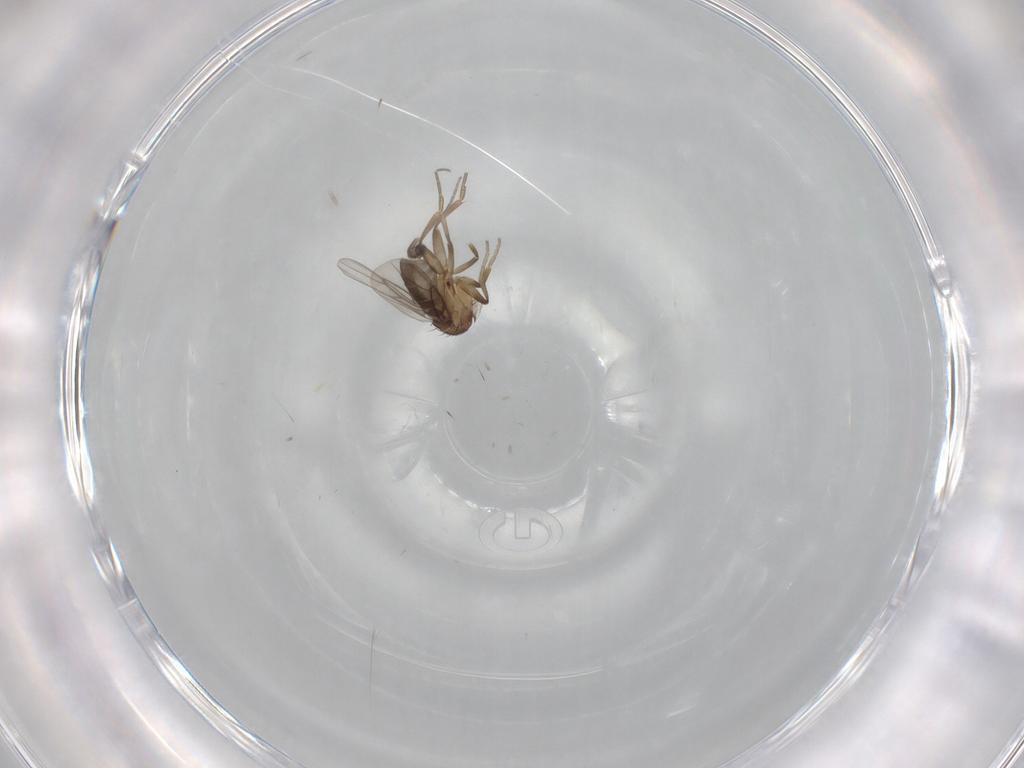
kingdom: Animalia
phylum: Arthropoda
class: Insecta
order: Diptera
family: Phoridae
